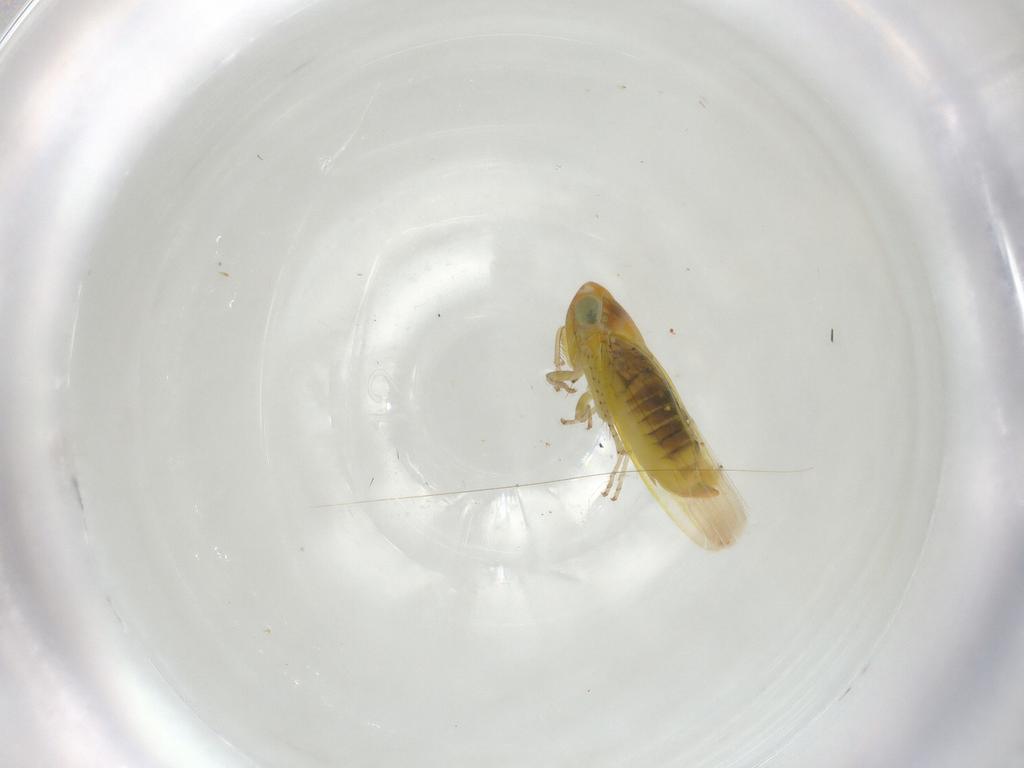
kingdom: Animalia
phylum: Arthropoda
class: Insecta
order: Hemiptera
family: Cicadellidae
